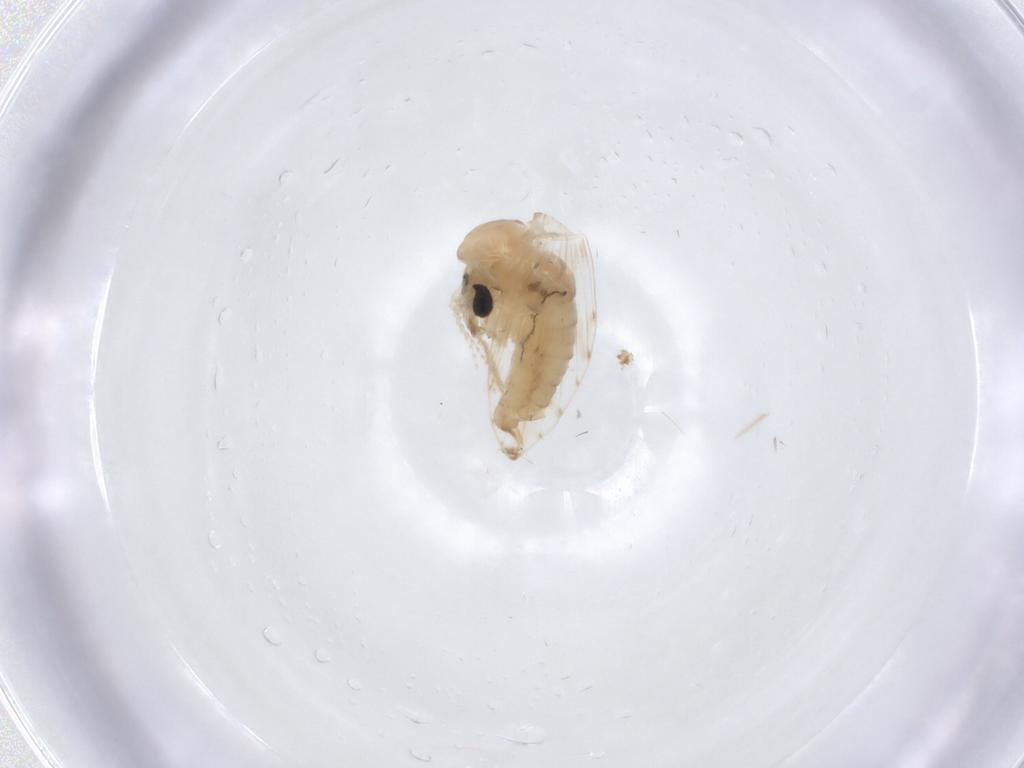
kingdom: Animalia
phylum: Arthropoda
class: Insecta
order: Diptera
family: Psychodidae
